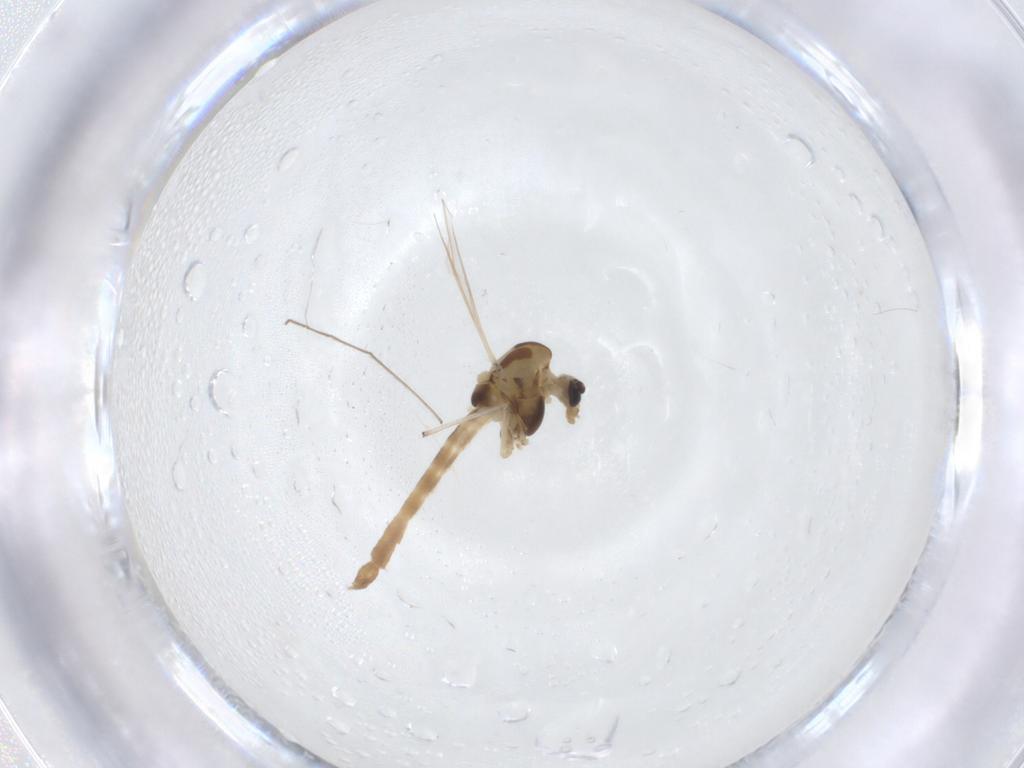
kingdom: Animalia
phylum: Arthropoda
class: Insecta
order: Diptera
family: Chironomidae
